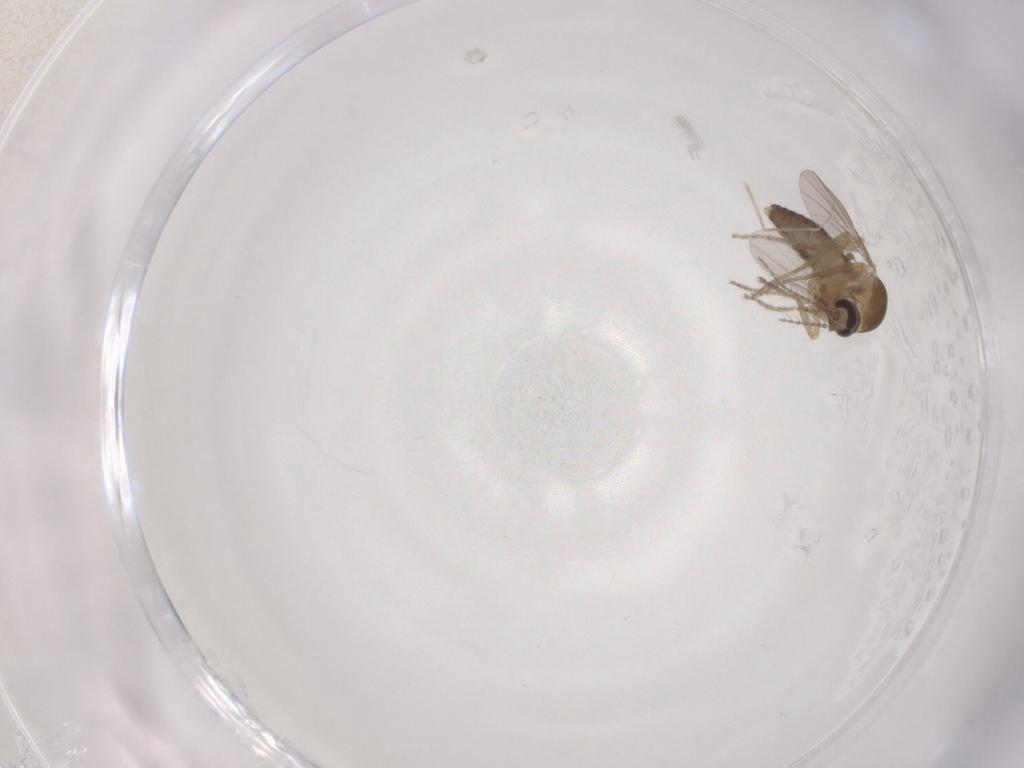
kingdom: Animalia
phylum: Arthropoda
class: Insecta
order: Diptera
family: Ceratopogonidae
